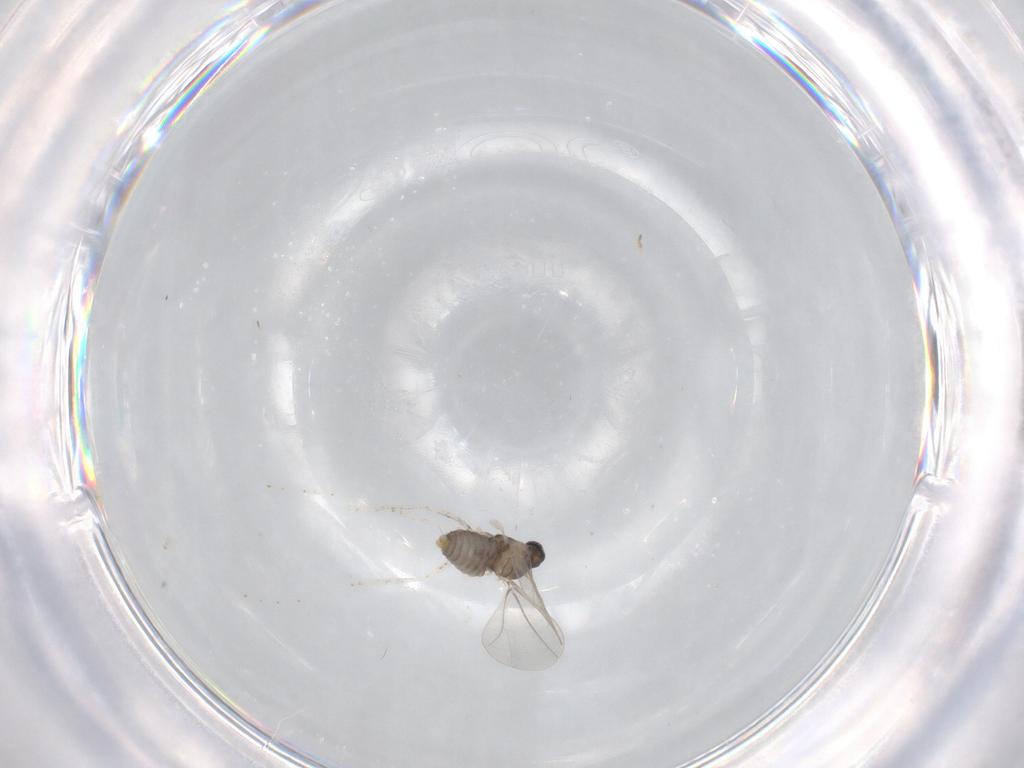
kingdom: Animalia
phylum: Arthropoda
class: Insecta
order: Diptera
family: Cecidomyiidae
